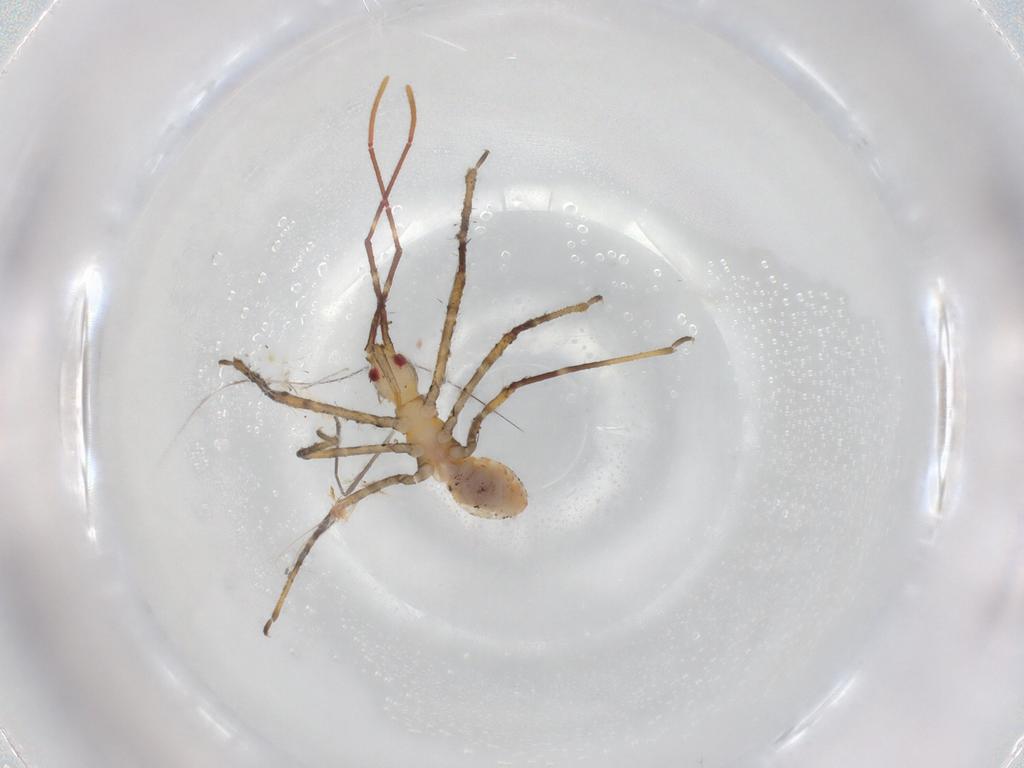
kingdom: Animalia
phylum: Arthropoda
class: Insecta
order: Hemiptera
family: Reduviidae
